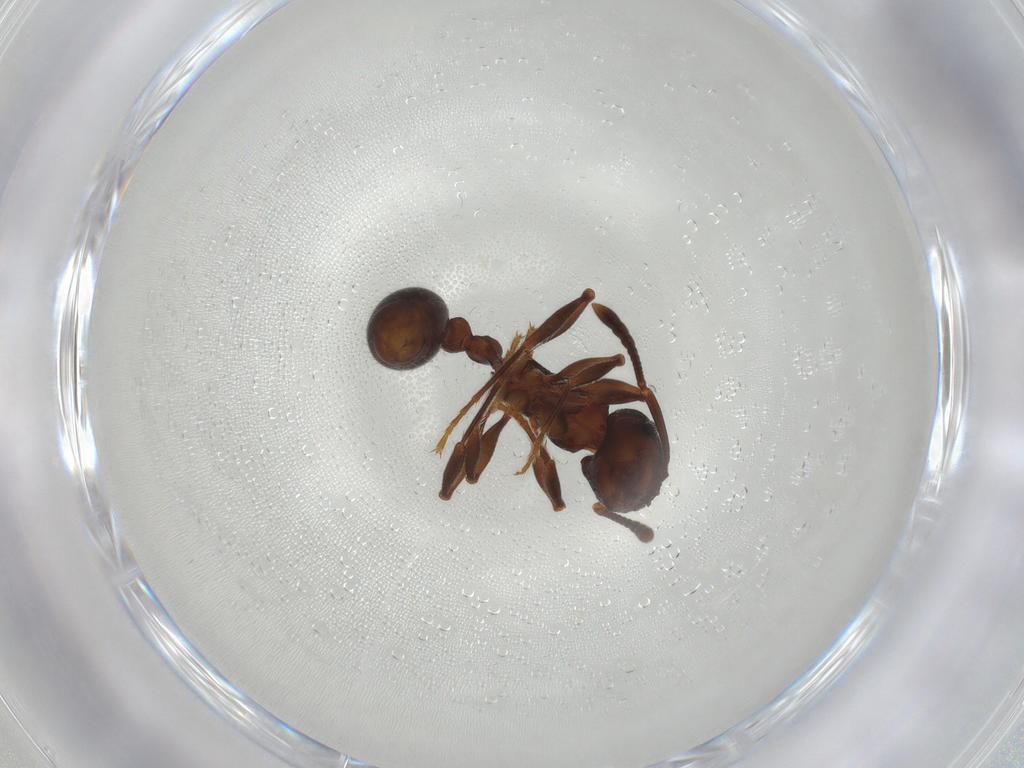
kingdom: Animalia
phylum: Arthropoda
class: Insecta
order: Hymenoptera
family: Formicidae
